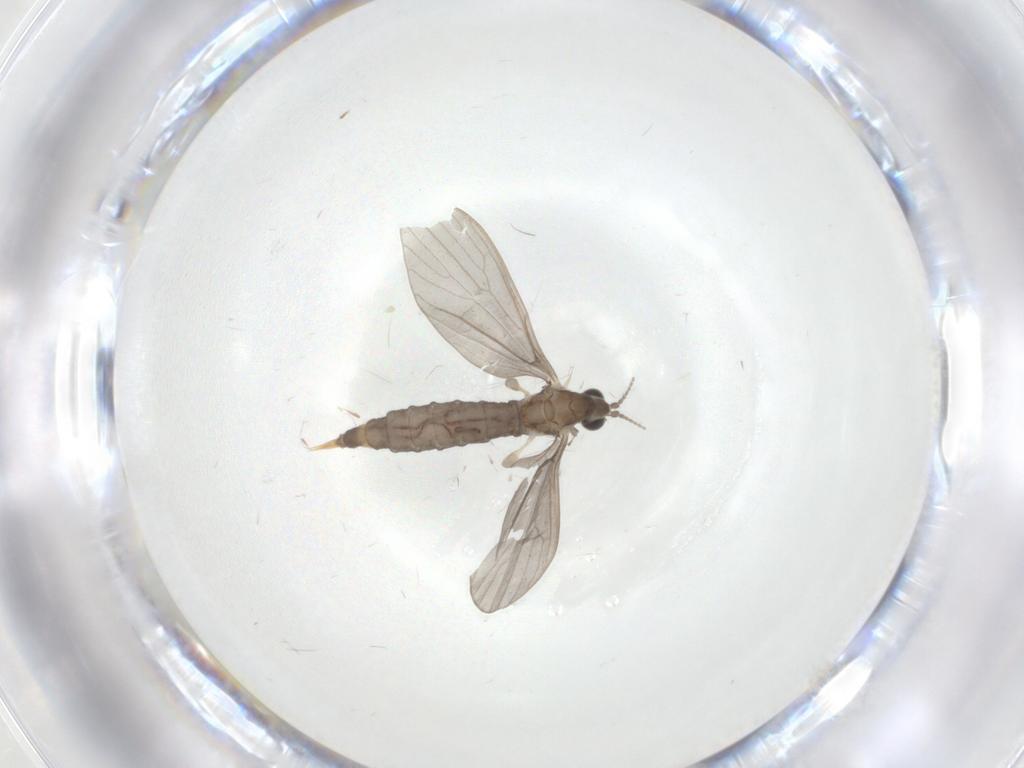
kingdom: Animalia
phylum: Arthropoda
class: Insecta
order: Diptera
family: Limoniidae
